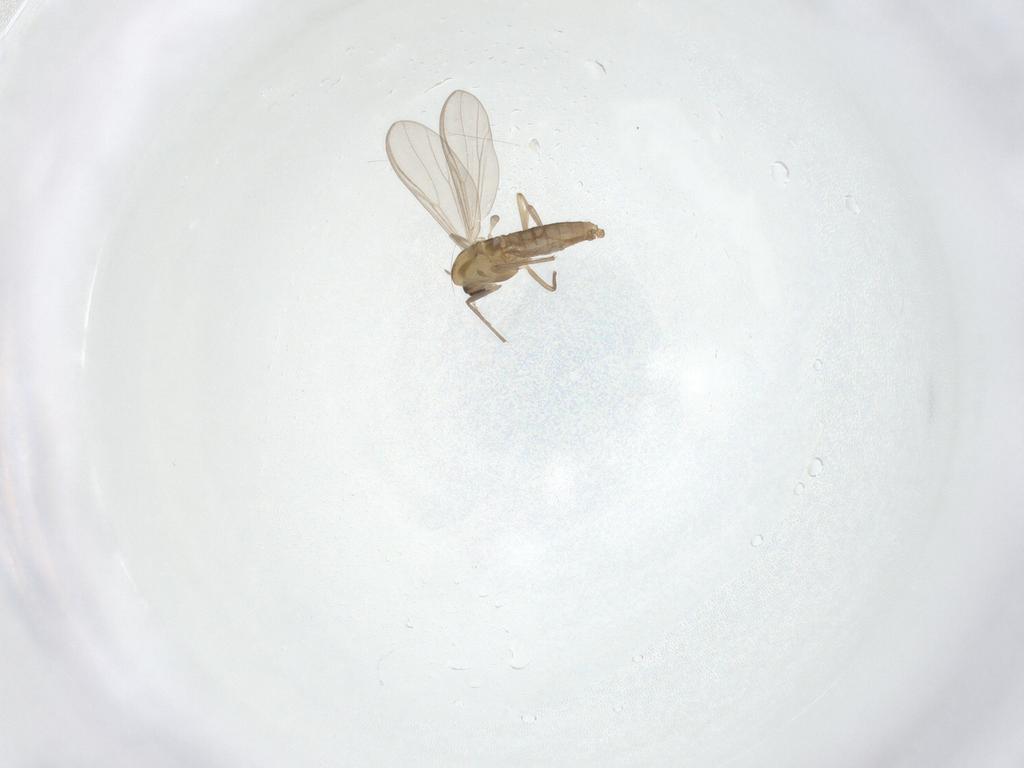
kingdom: Animalia
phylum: Arthropoda
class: Insecta
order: Diptera
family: Chironomidae
